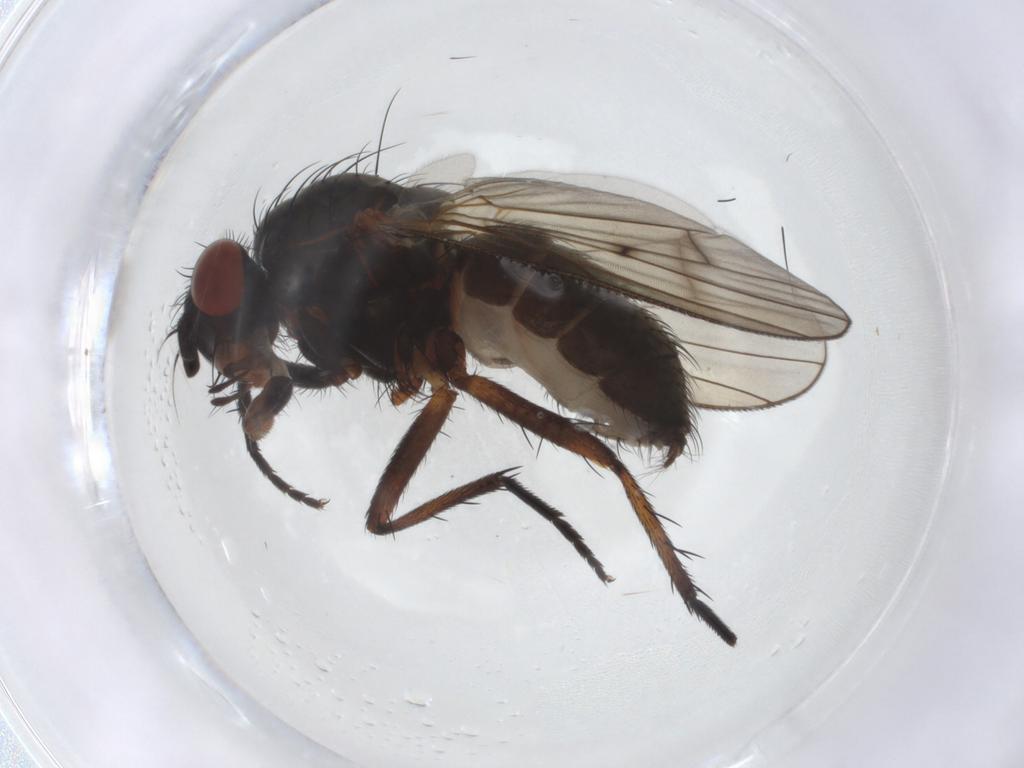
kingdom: Animalia
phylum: Arthropoda
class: Insecta
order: Diptera
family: Anthomyiidae
